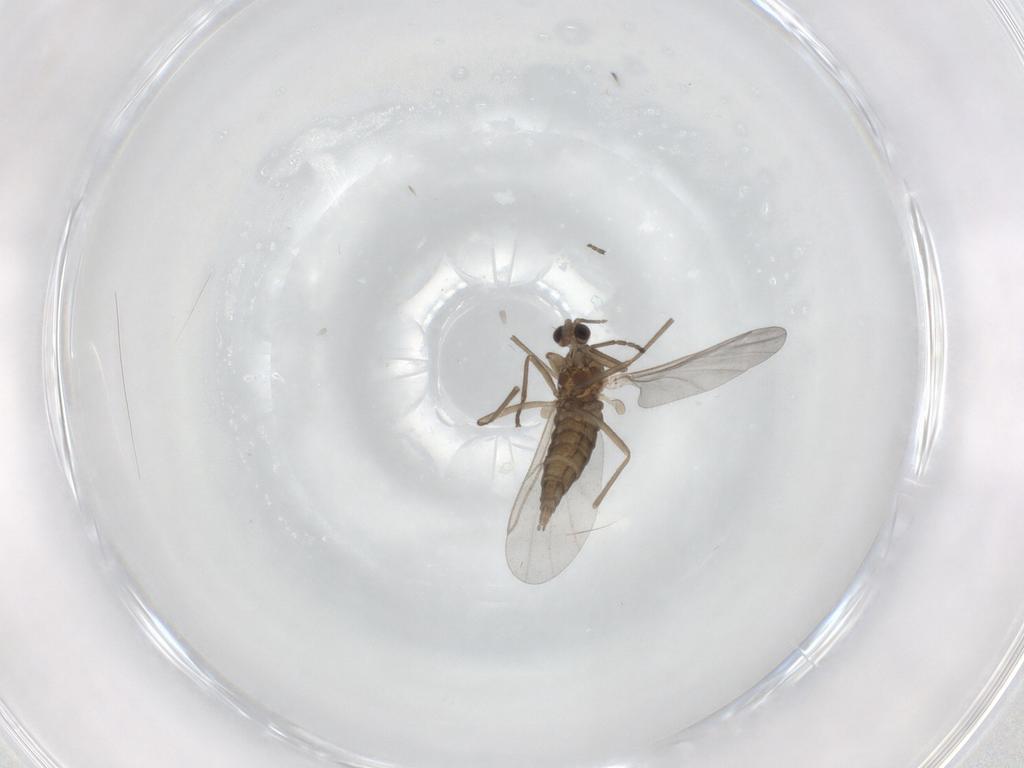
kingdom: Animalia
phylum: Arthropoda
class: Insecta
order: Diptera
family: Cecidomyiidae
